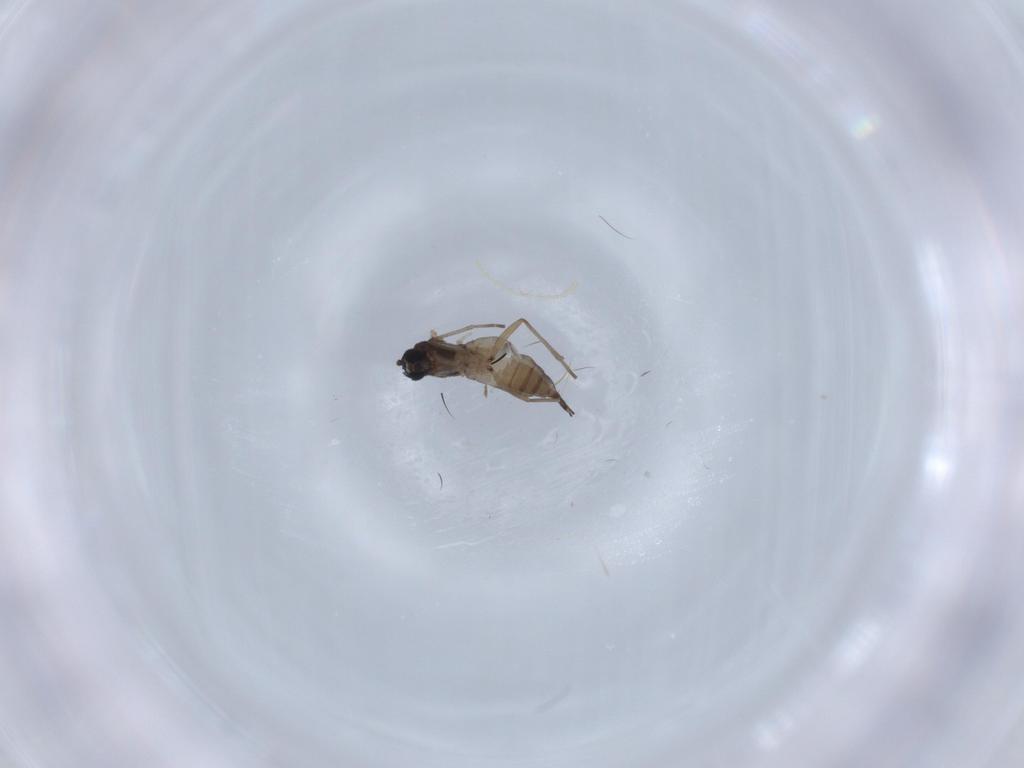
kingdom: Animalia
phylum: Arthropoda
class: Insecta
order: Diptera
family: Sciaridae
